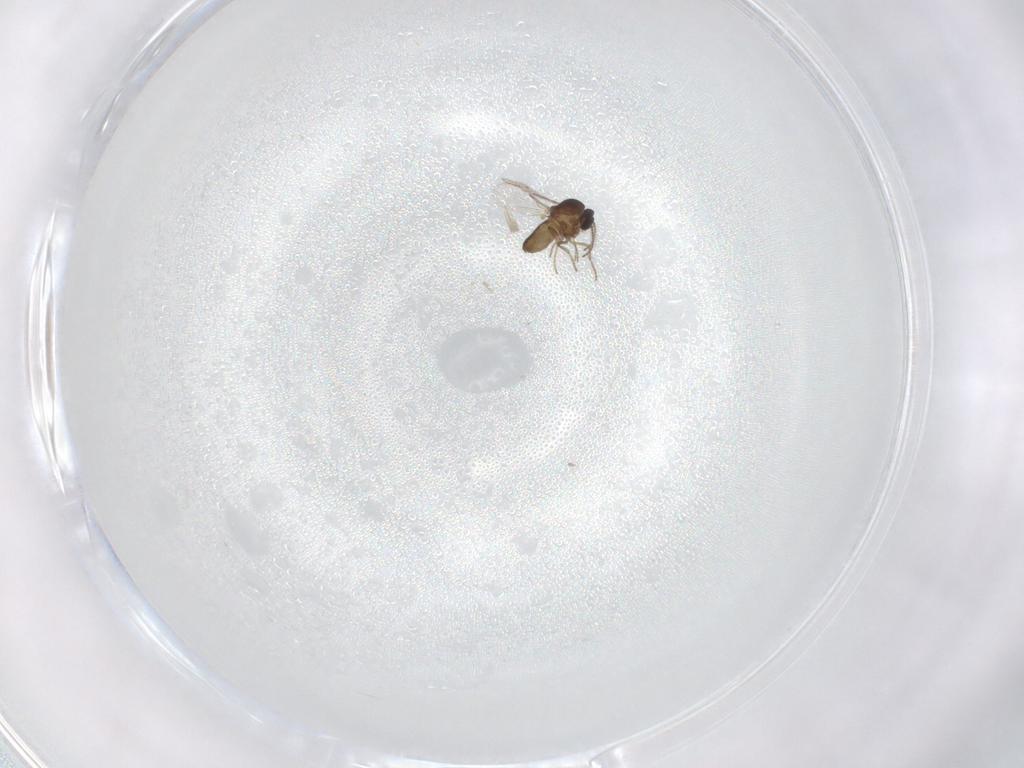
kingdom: Animalia
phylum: Arthropoda
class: Insecta
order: Diptera
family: Ceratopogonidae
